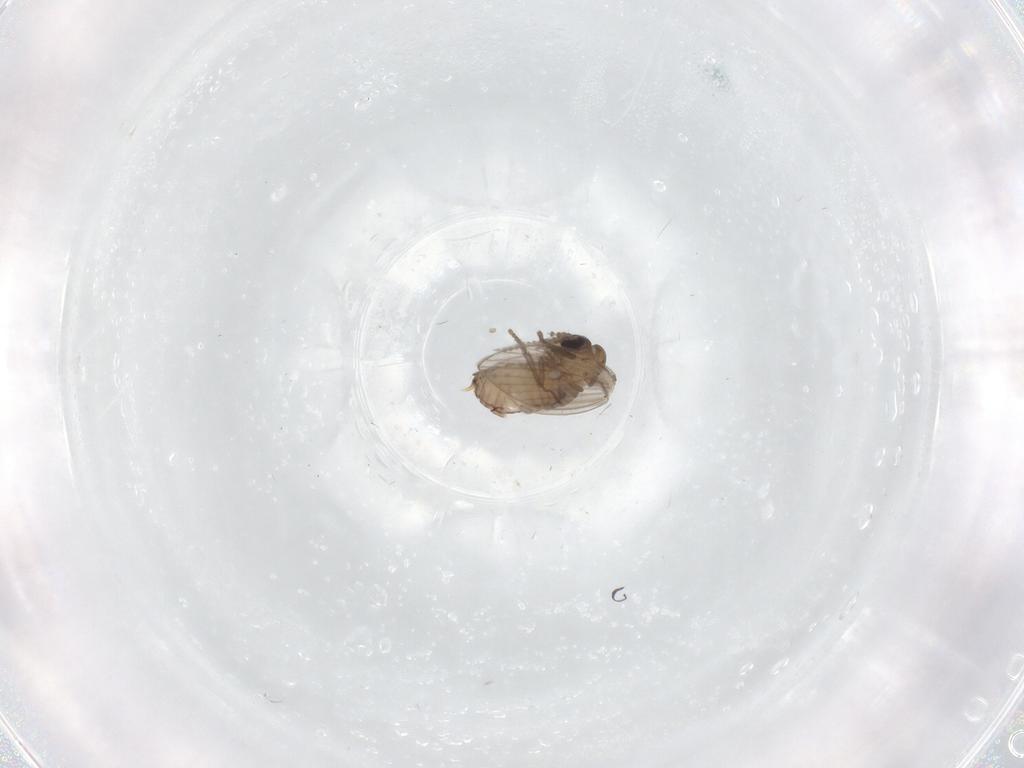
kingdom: Animalia
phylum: Arthropoda
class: Insecta
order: Diptera
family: Psychodidae
